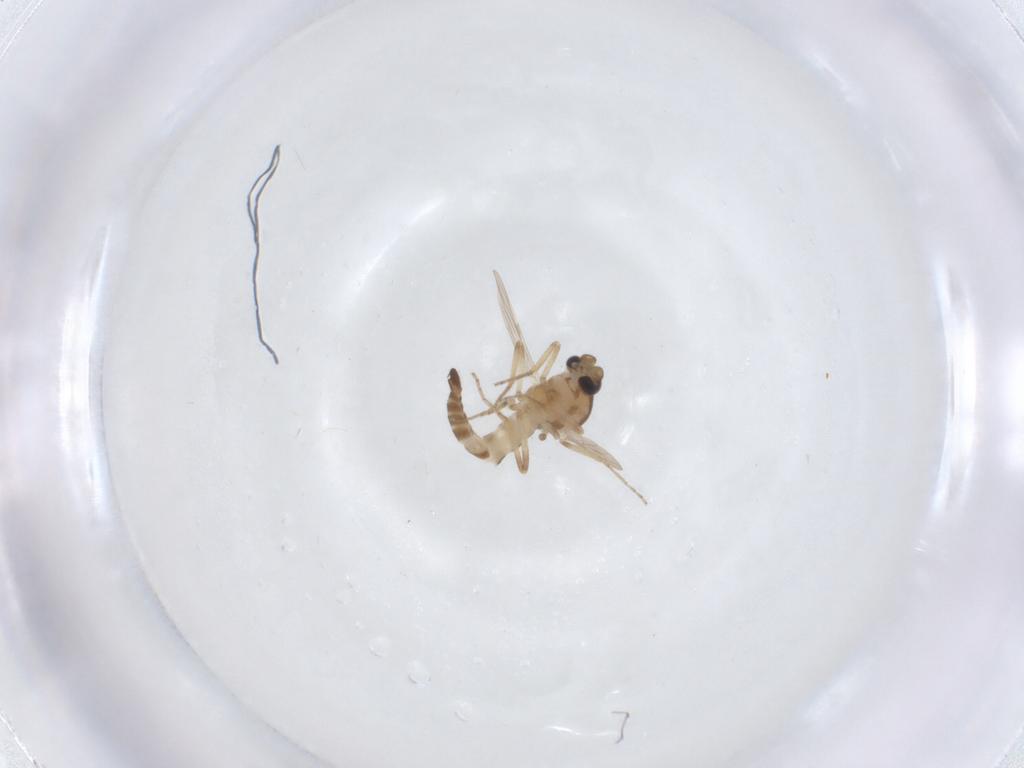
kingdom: Animalia
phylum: Arthropoda
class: Insecta
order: Diptera
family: Ceratopogonidae
